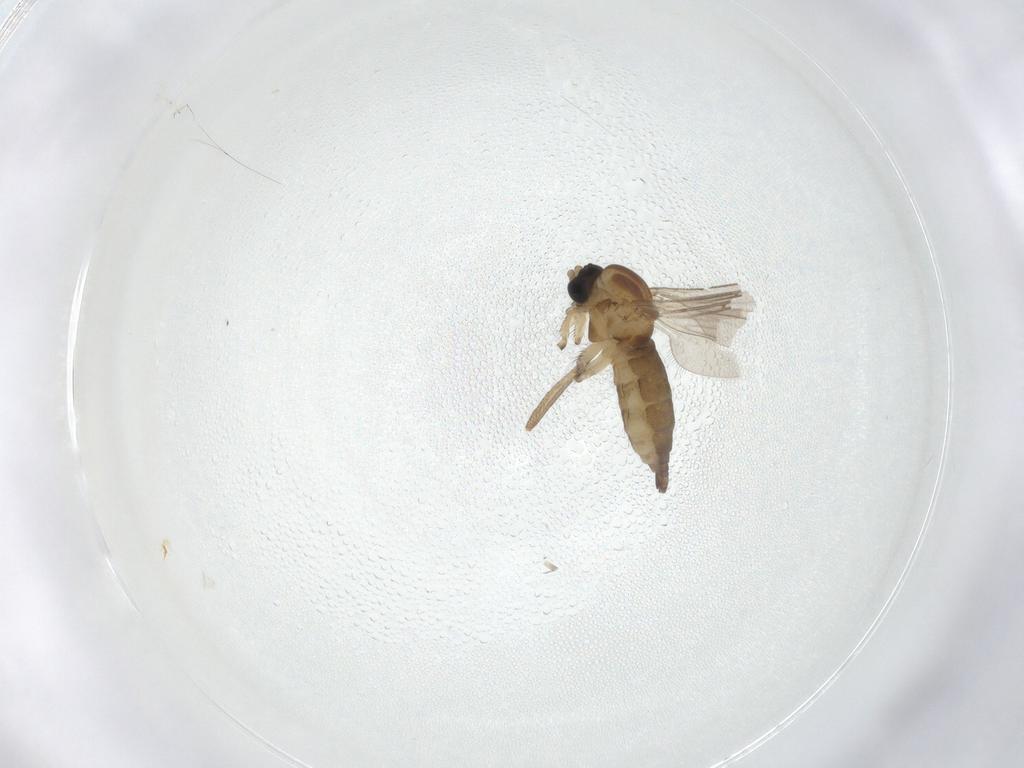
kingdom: Animalia
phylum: Arthropoda
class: Insecta
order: Diptera
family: Sciaridae
